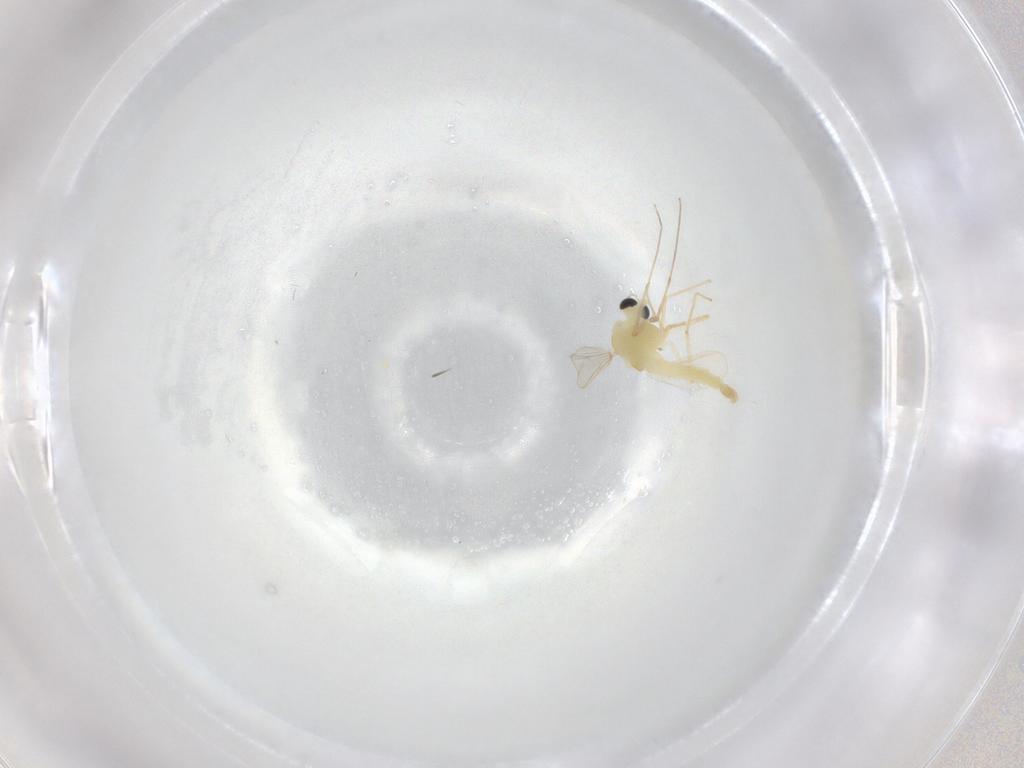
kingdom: Animalia
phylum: Arthropoda
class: Insecta
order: Diptera
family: Chironomidae
